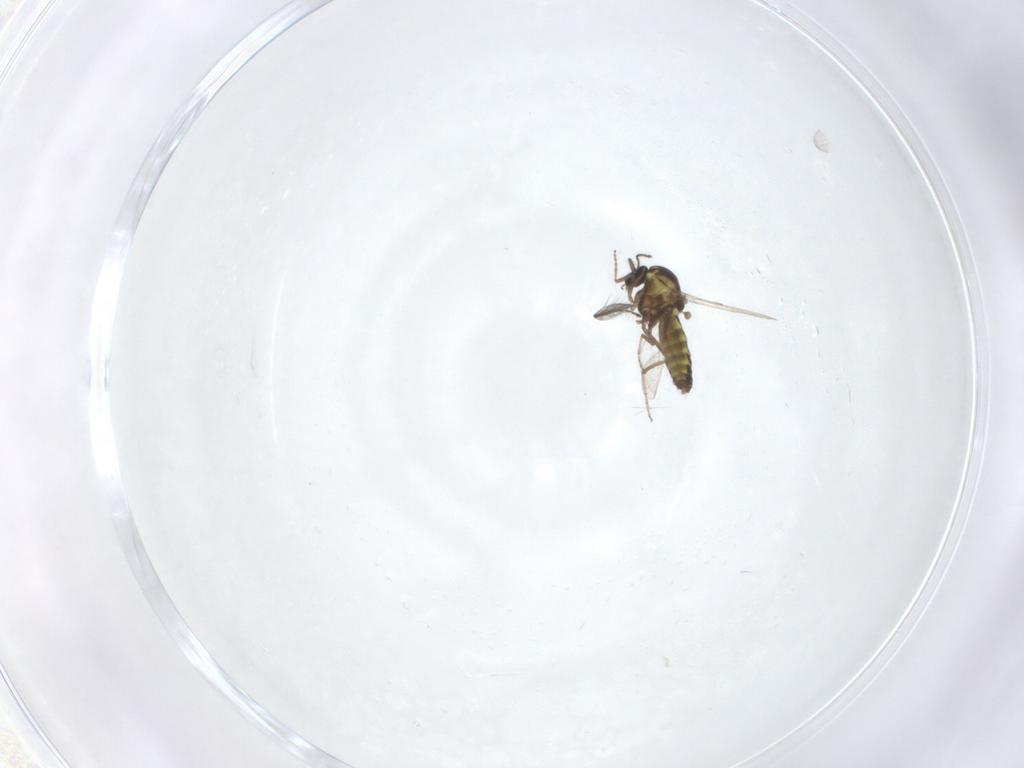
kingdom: Animalia
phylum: Arthropoda
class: Insecta
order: Diptera
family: Ceratopogonidae
